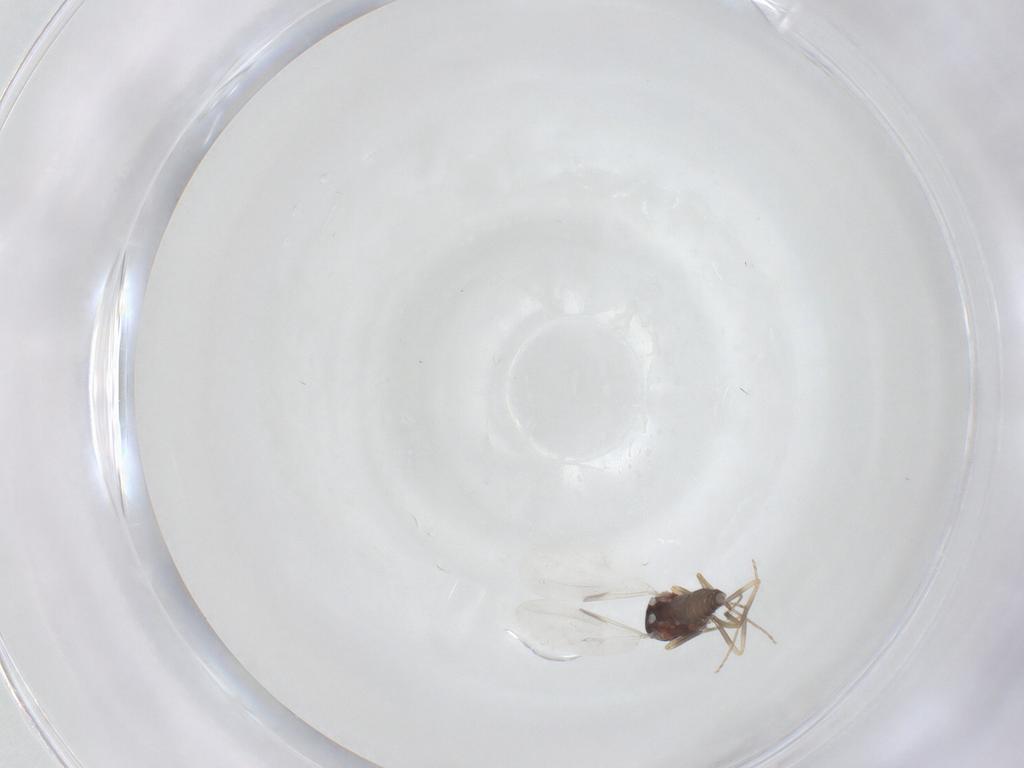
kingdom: Animalia
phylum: Arthropoda
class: Insecta
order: Diptera
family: Ceratopogonidae
